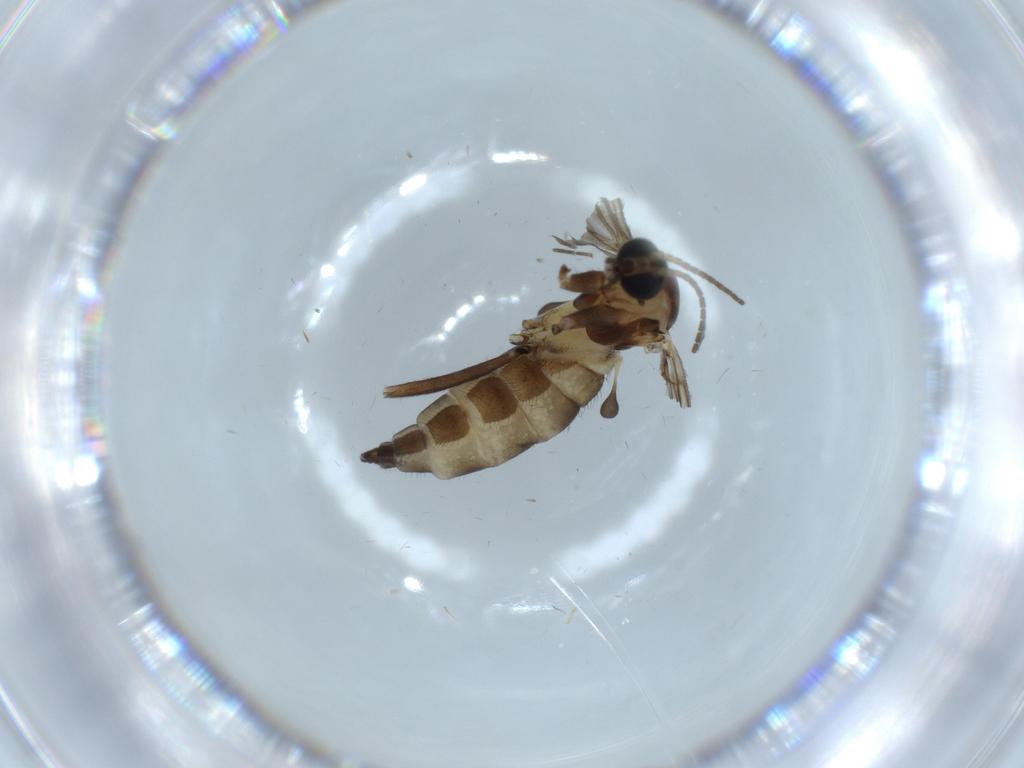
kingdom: Animalia
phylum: Arthropoda
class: Insecta
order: Diptera
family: Sciaridae
